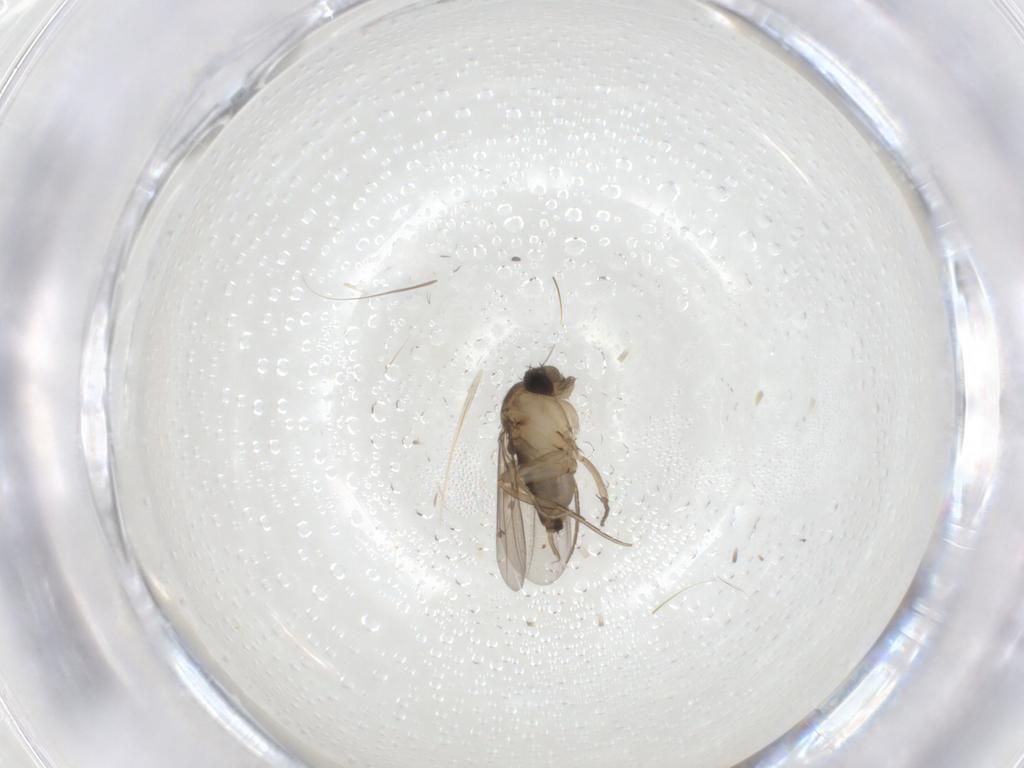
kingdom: Animalia
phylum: Arthropoda
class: Insecta
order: Diptera
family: Phoridae
